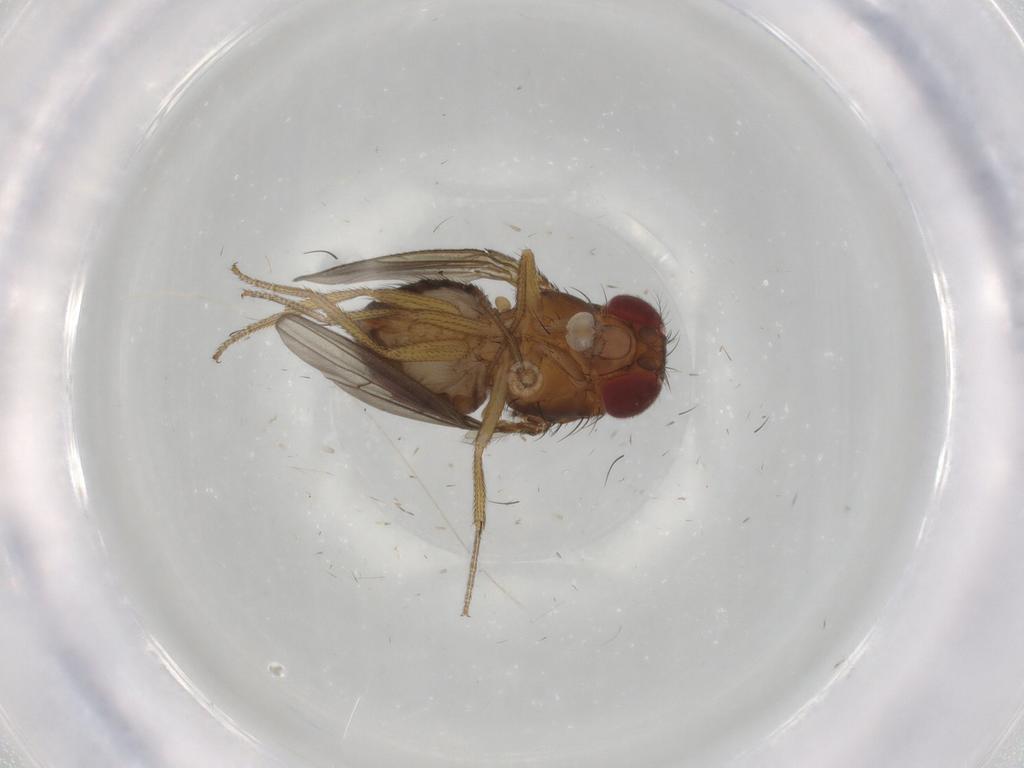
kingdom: Animalia
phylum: Arthropoda
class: Insecta
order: Diptera
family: Drosophilidae
